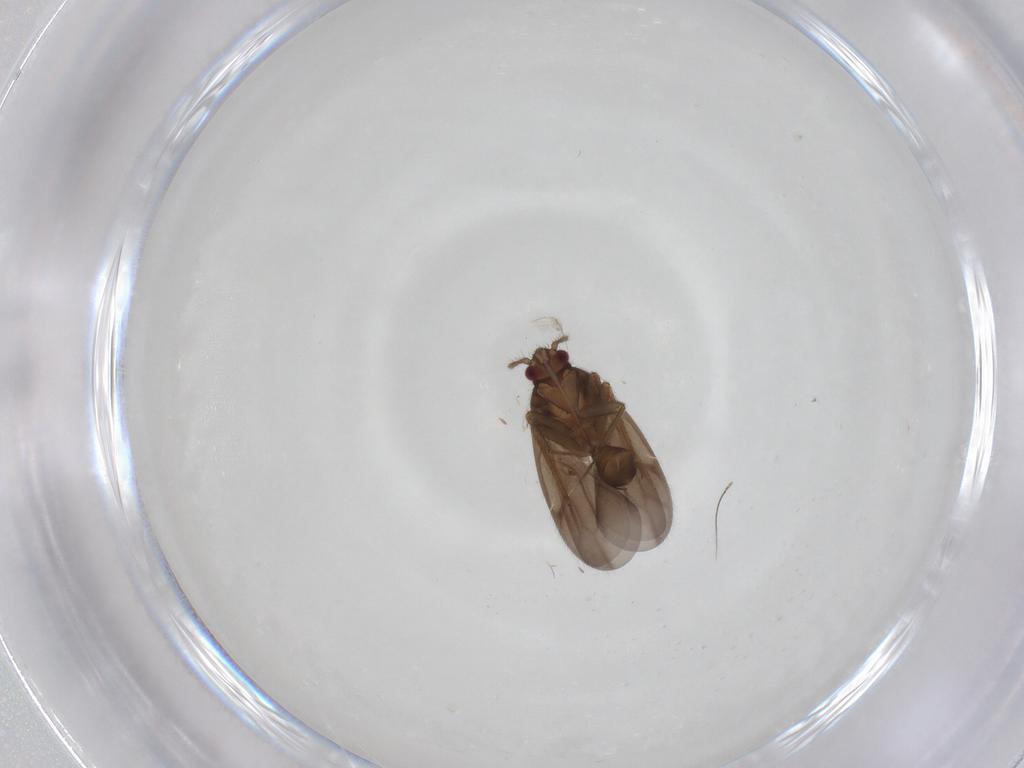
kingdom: Animalia
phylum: Arthropoda
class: Insecta
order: Hemiptera
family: Ceratocombidae
